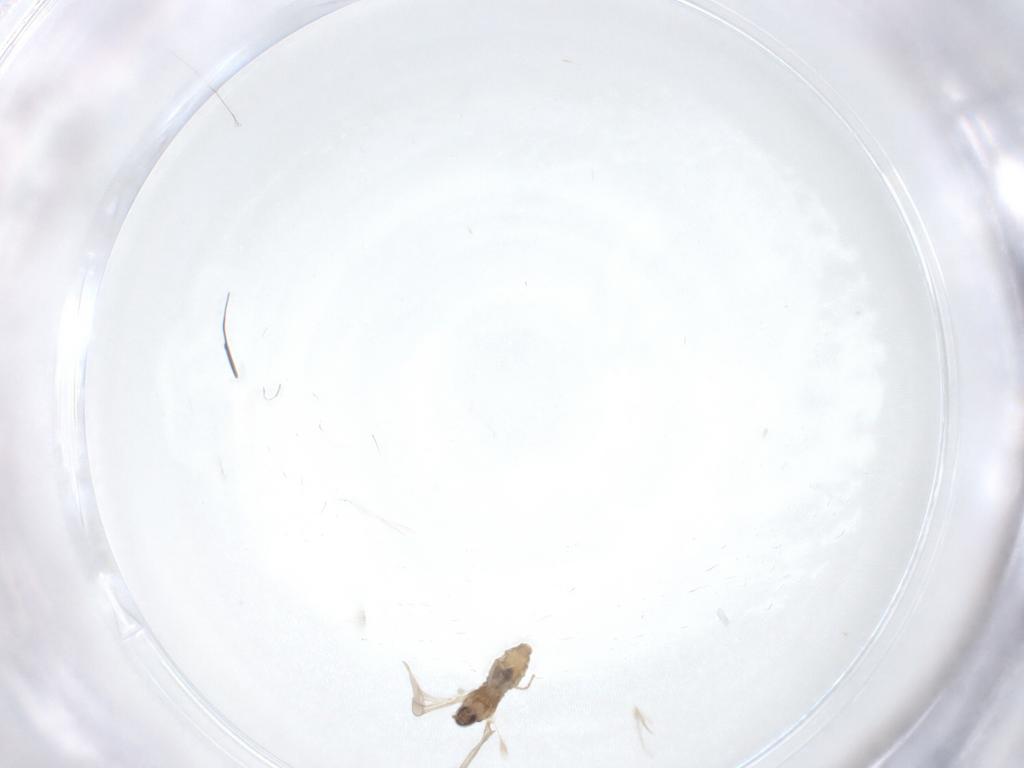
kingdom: Animalia
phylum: Arthropoda
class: Insecta
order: Diptera
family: Cecidomyiidae
